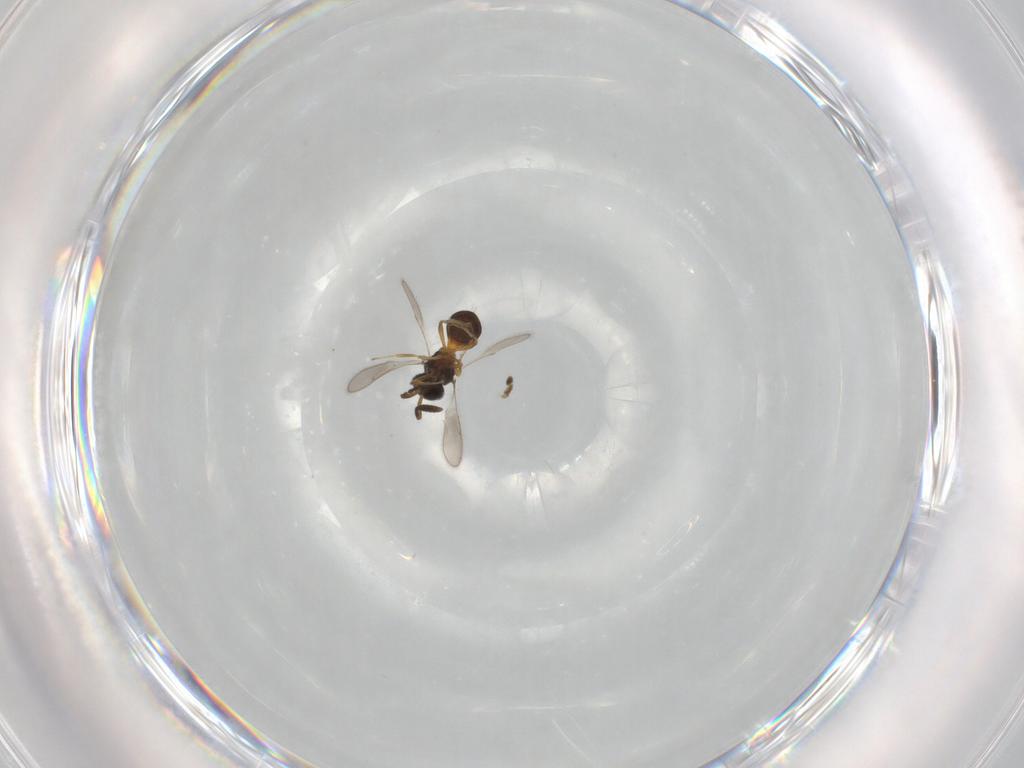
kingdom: Animalia
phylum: Arthropoda
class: Insecta
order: Hymenoptera
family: Scelionidae
